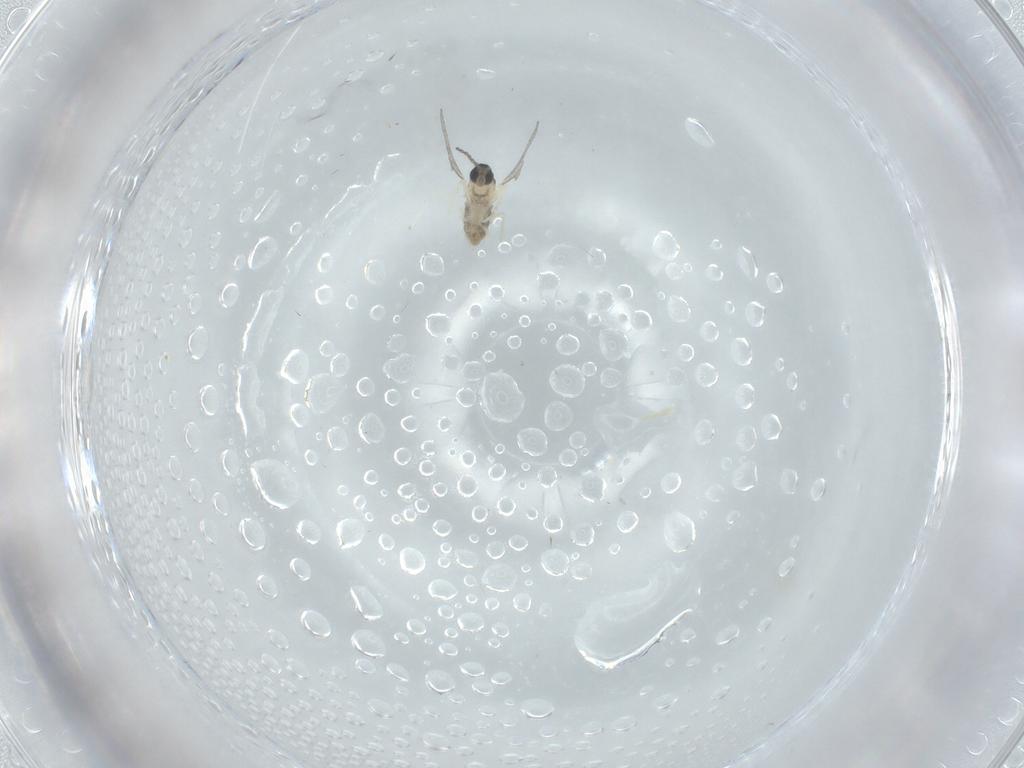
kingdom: Animalia
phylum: Arthropoda
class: Insecta
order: Diptera
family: Cecidomyiidae
